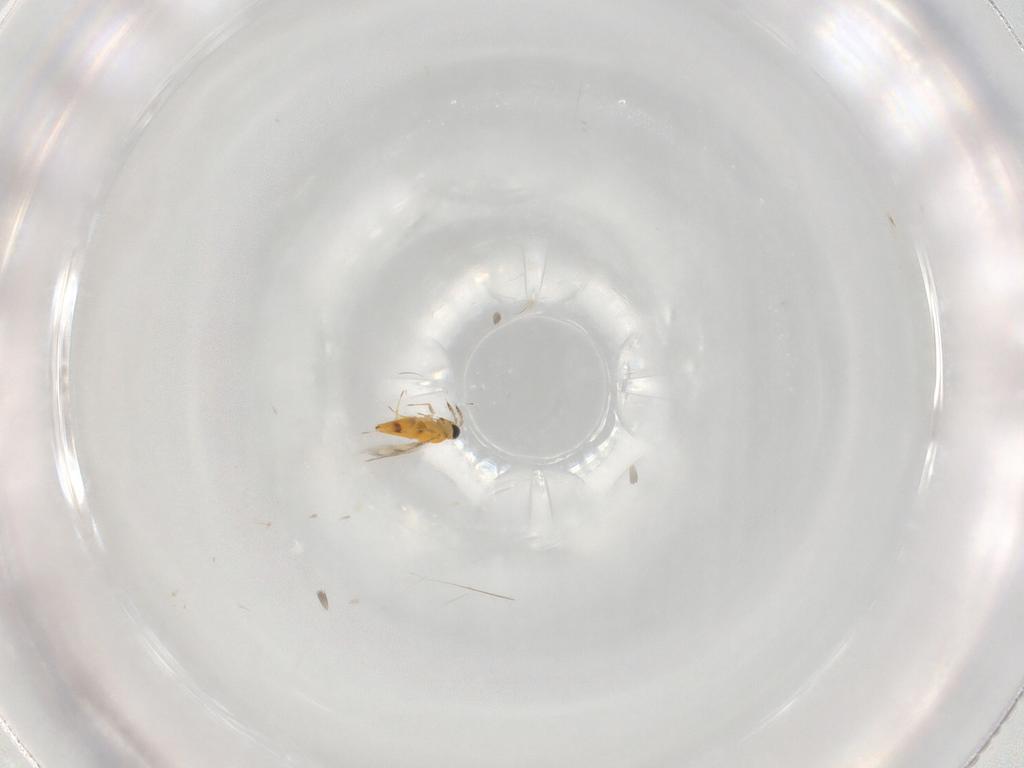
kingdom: Animalia
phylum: Arthropoda
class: Insecta
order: Hymenoptera
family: Trichogrammatidae
